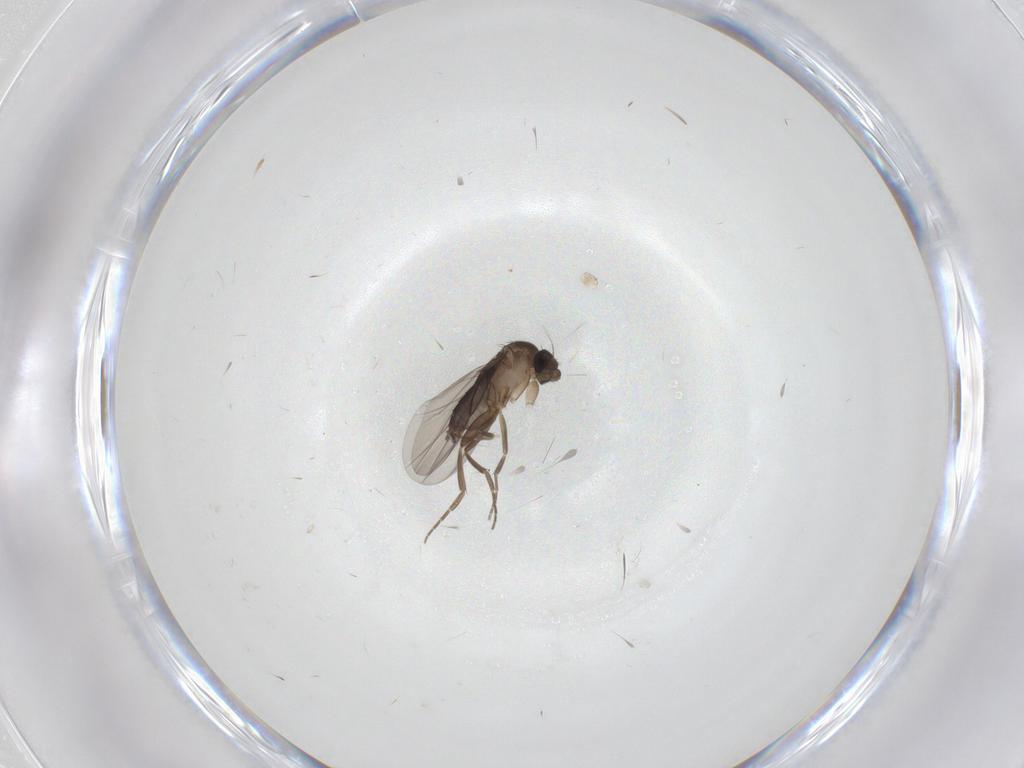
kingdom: Animalia
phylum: Arthropoda
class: Insecta
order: Diptera
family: Phoridae
